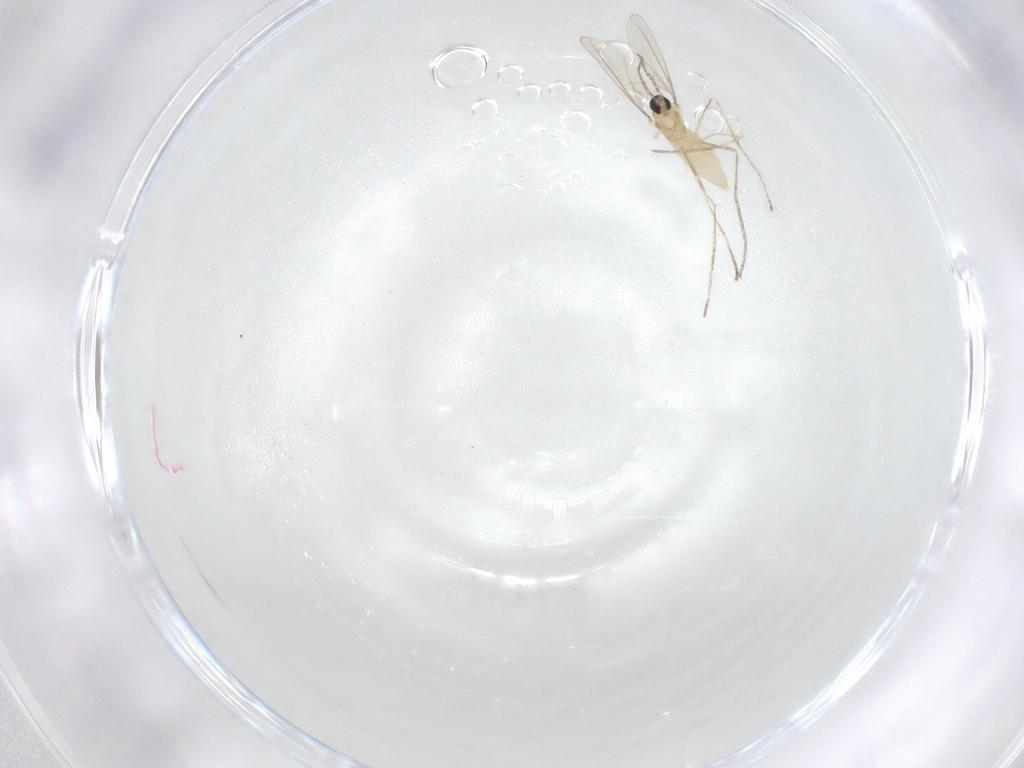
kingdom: Animalia
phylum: Arthropoda
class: Insecta
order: Diptera
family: Cecidomyiidae
